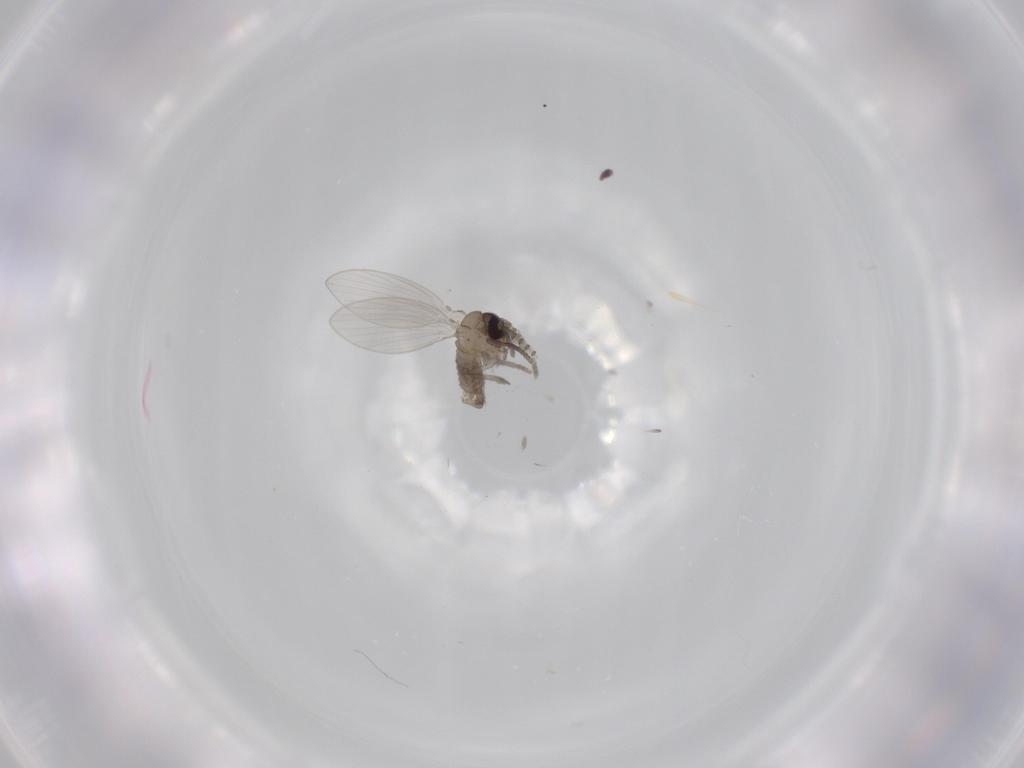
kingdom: Animalia
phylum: Arthropoda
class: Insecta
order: Diptera
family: Psychodidae
